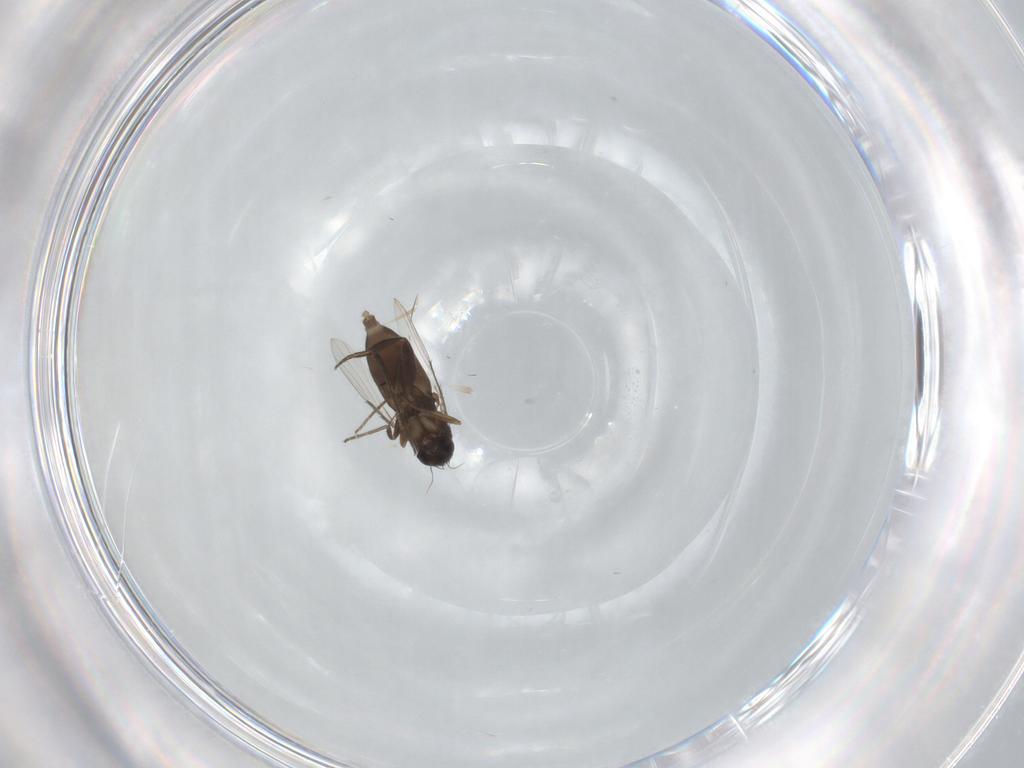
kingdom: Animalia
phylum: Arthropoda
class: Insecta
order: Diptera
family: Phoridae
